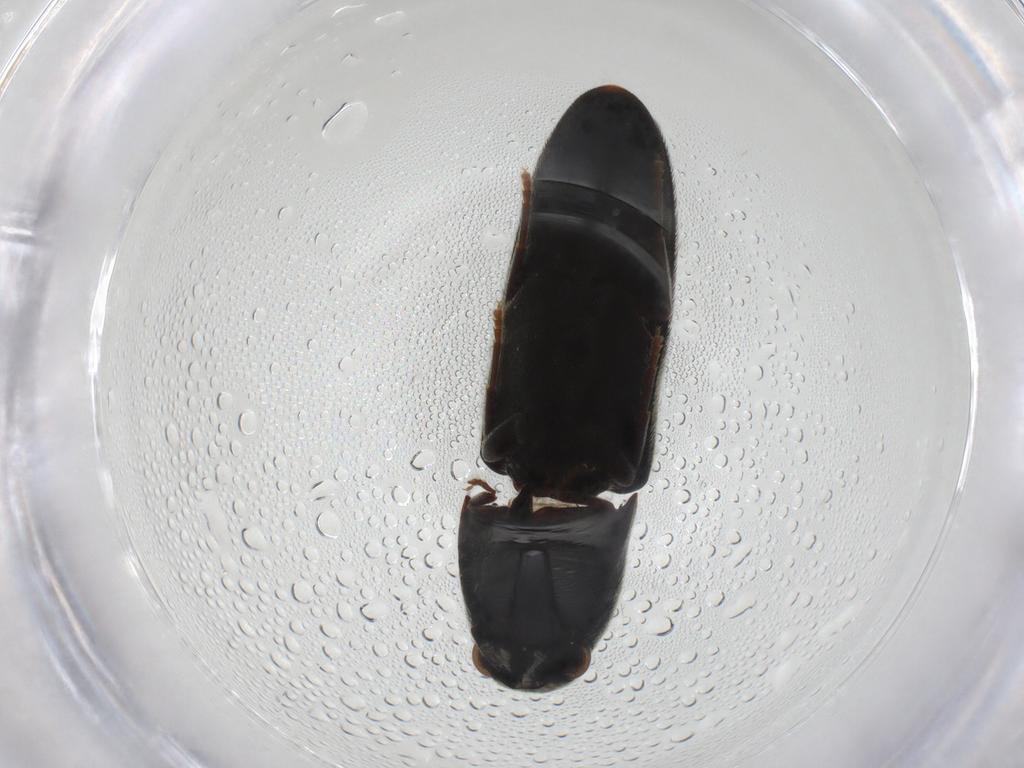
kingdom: Animalia
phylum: Arthropoda
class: Insecta
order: Coleoptera
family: Eucnemidae
